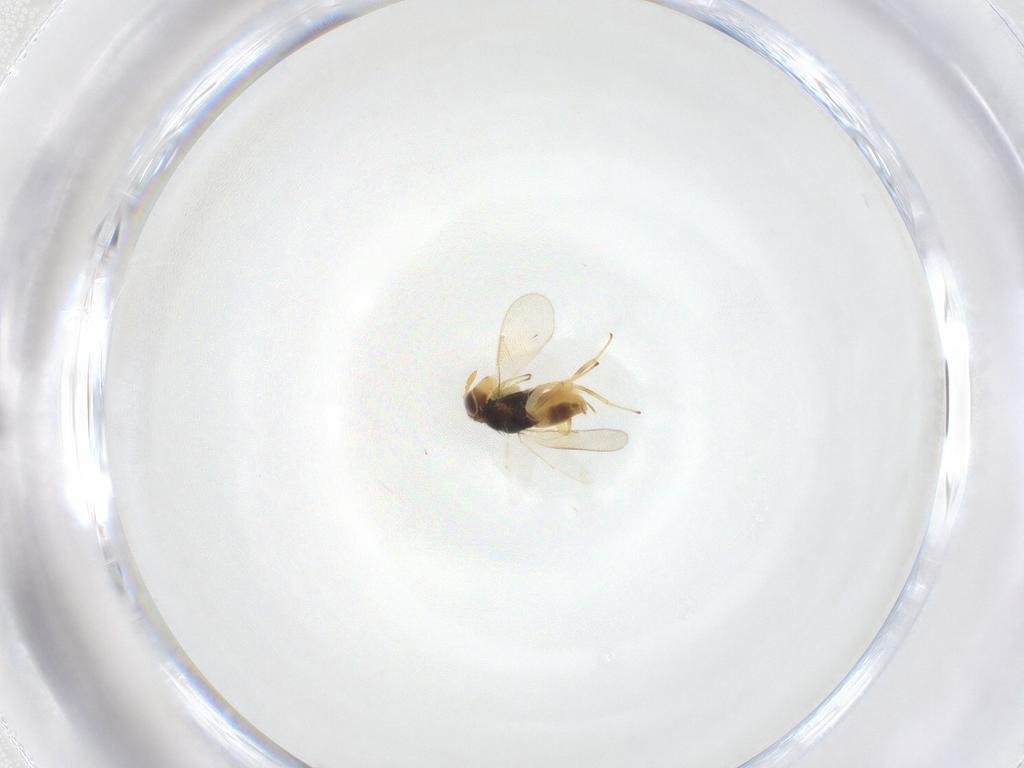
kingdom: Animalia
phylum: Arthropoda
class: Insecta
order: Hymenoptera
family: Aphelinidae
